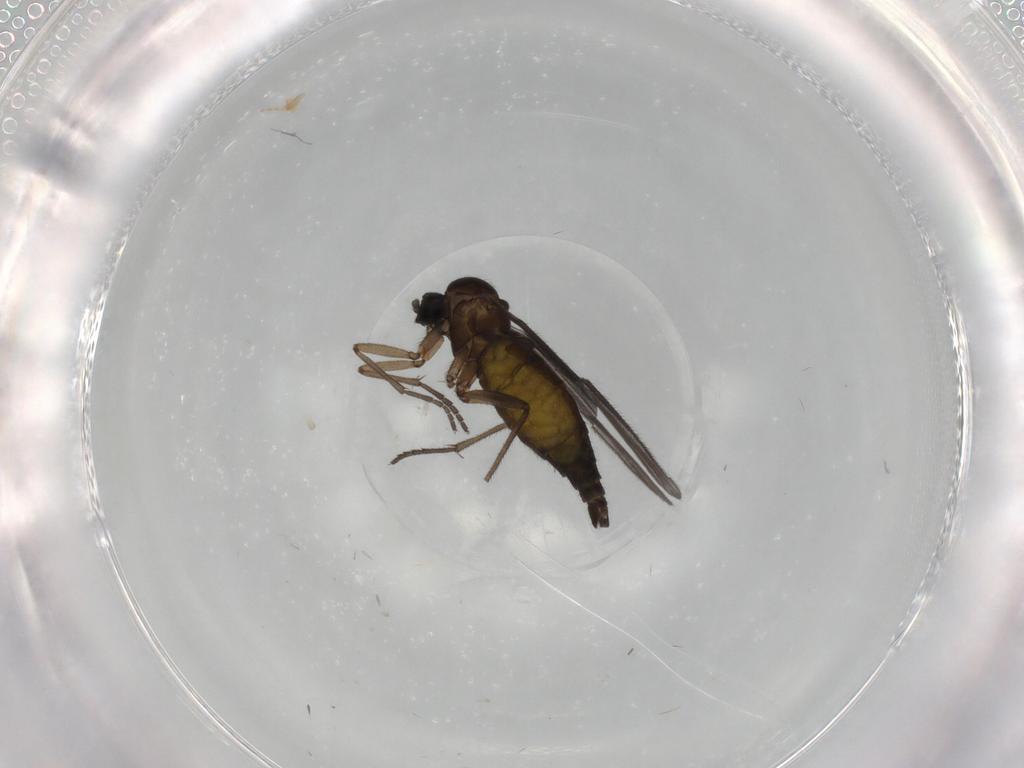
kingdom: Animalia
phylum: Arthropoda
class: Insecta
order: Diptera
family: Sciaridae
